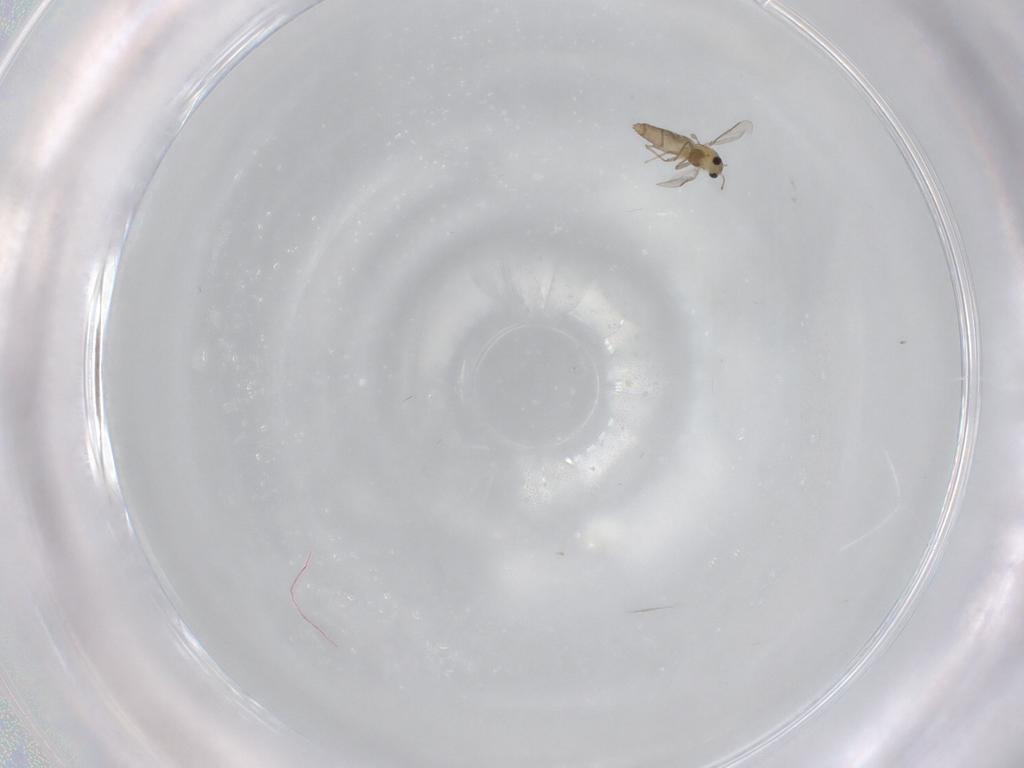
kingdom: Animalia
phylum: Arthropoda
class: Insecta
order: Diptera
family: Chironomidae
